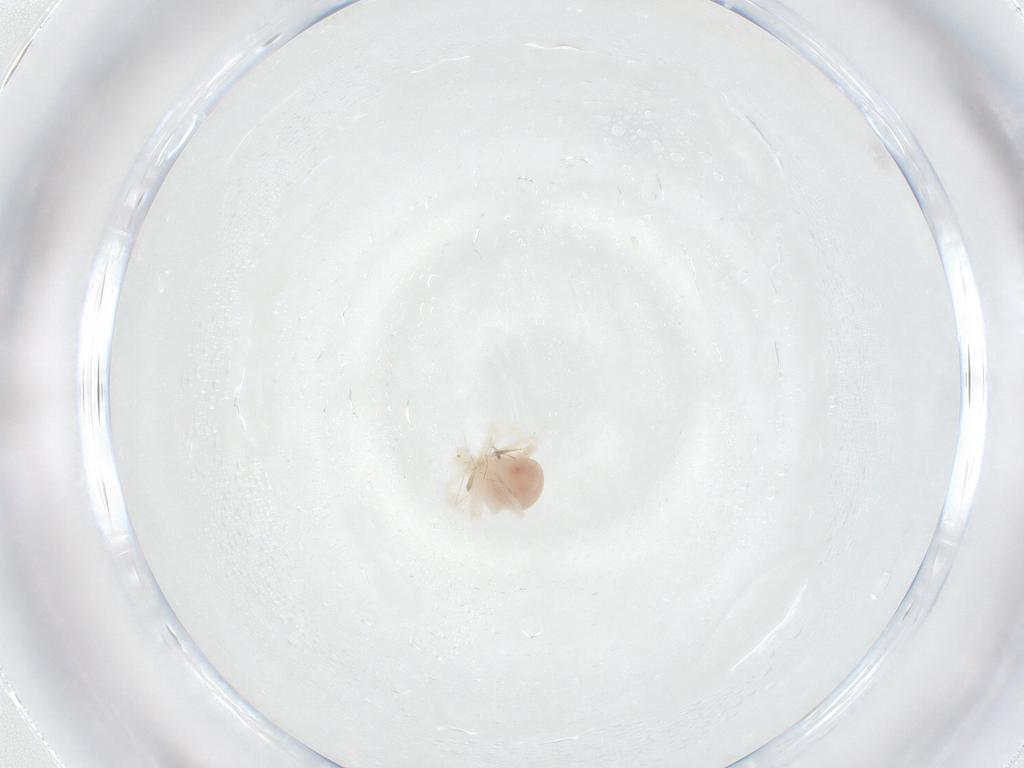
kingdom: Animalia
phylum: Arthropoda
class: Arachnida
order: Trombidiformes
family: Anystidae
